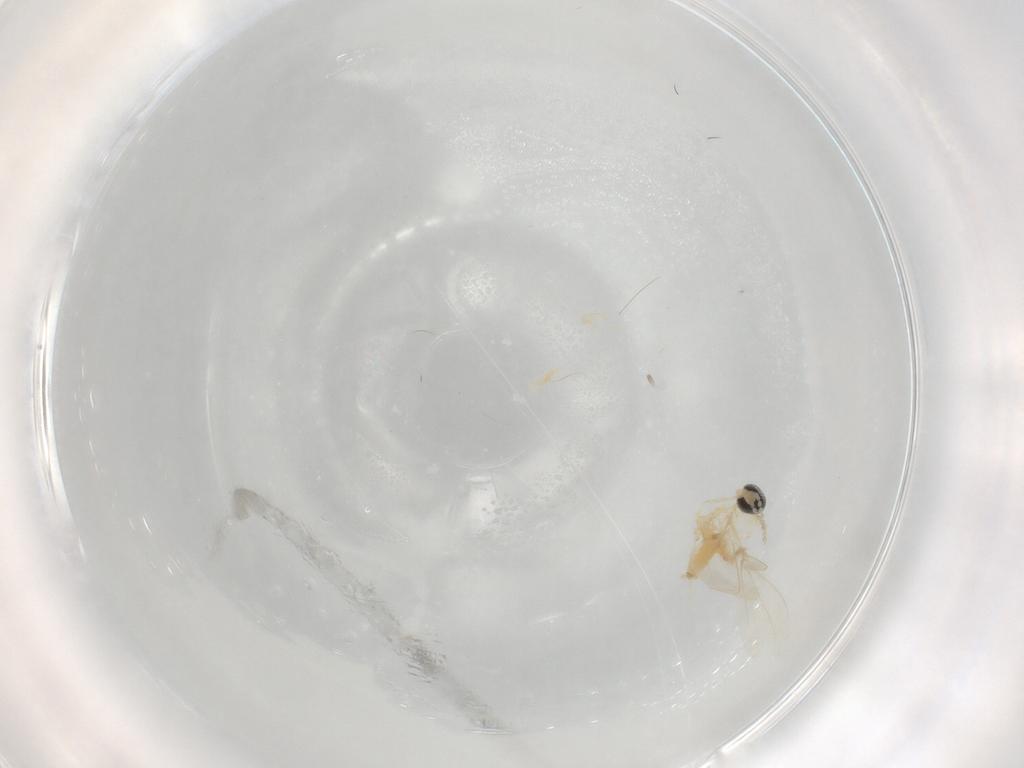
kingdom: Animalia
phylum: Arthropoda
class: Insecta
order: Diptera
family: Cecidomyiidae
